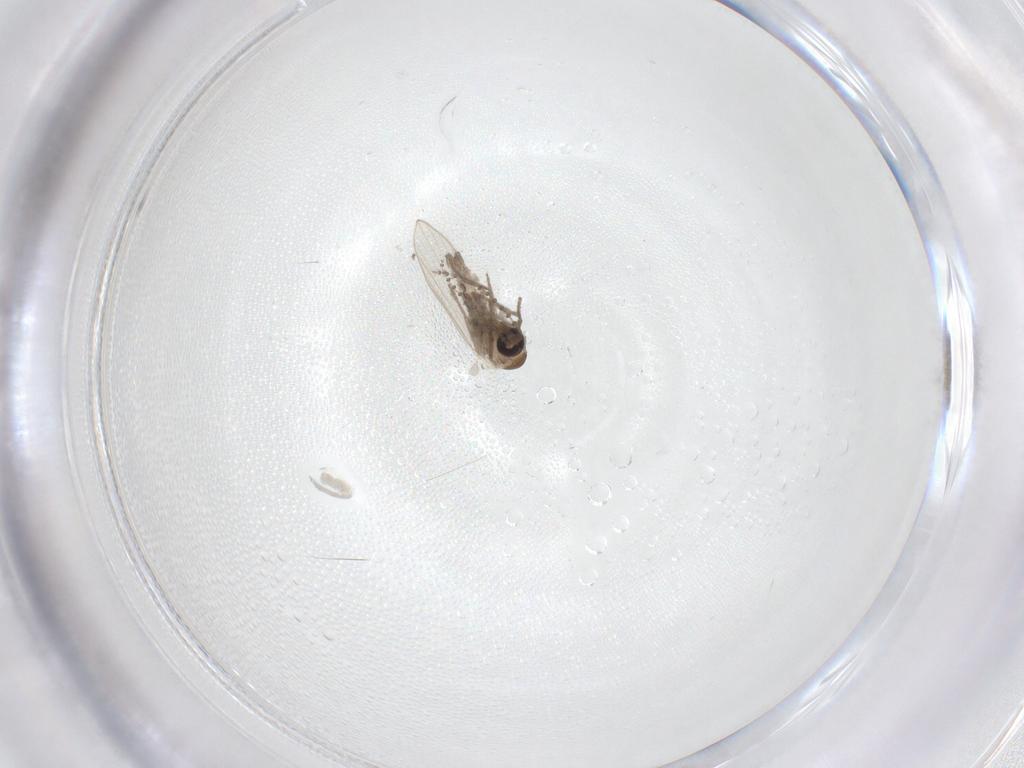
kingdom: Animalia
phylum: Arthropoda
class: Insecta
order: Diptera
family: Psychodidae
